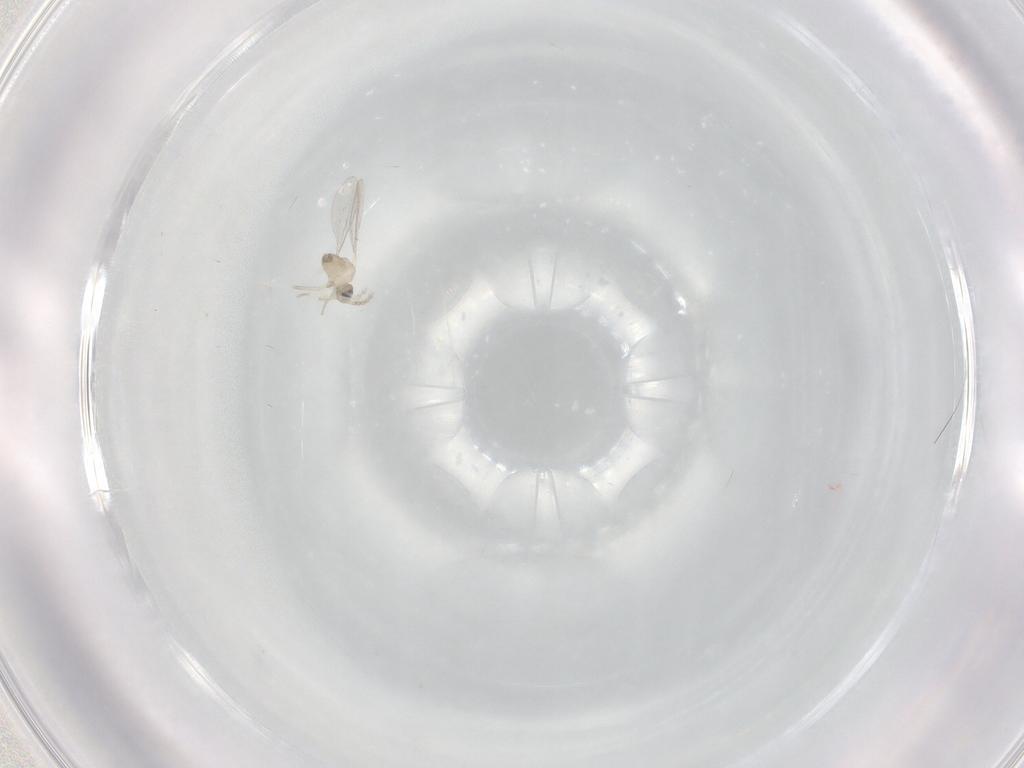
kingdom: Animalia
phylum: Arthropoda
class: Insecta
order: Diptera
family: Cecidomyiidae
